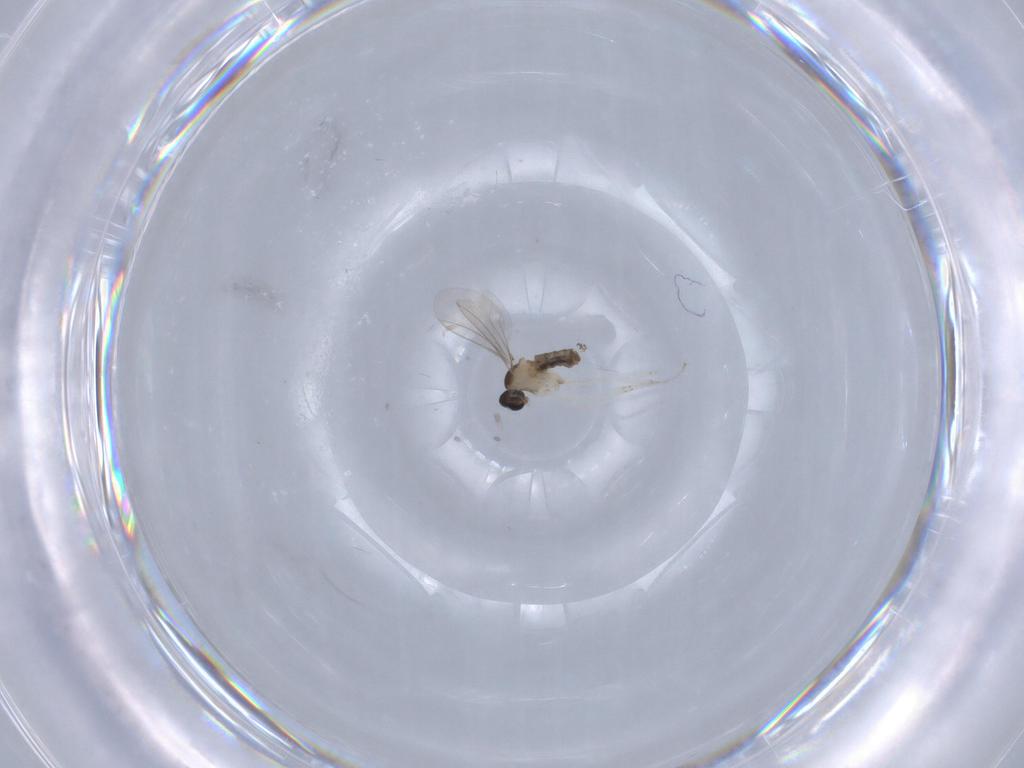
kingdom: Animalia
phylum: Arthropoda
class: Insecta
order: Diptera
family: Cecidomyiidae
